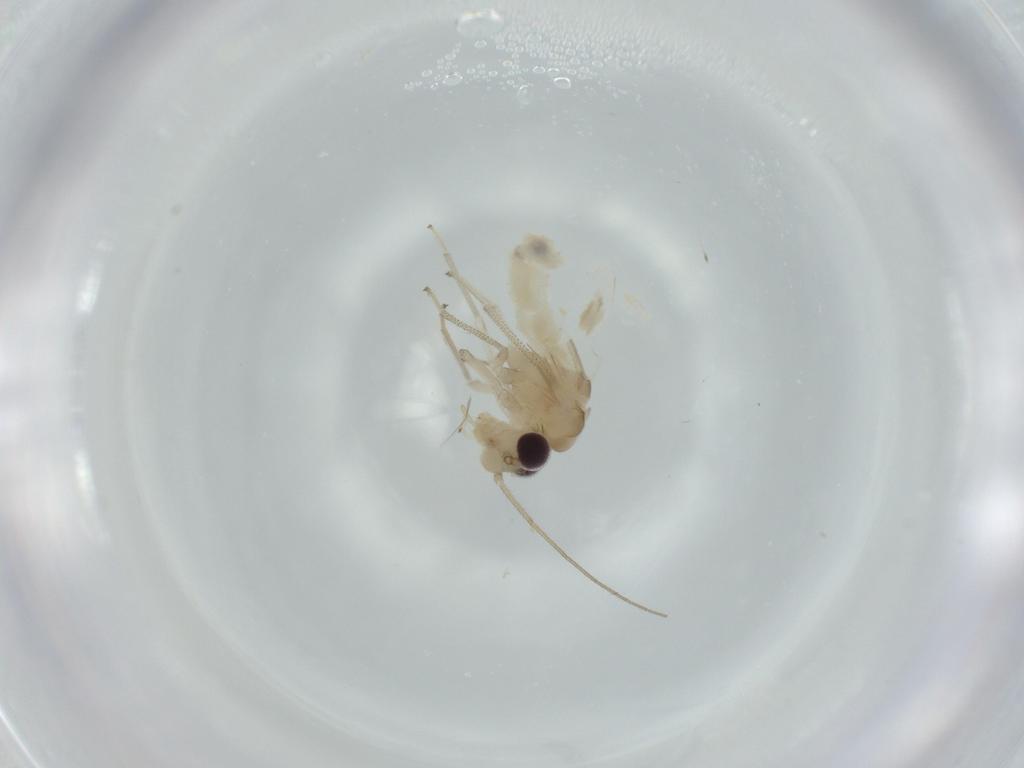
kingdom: Animalia
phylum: Arthropoda
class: Insecta
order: Psocodea
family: Caeciliusidae
